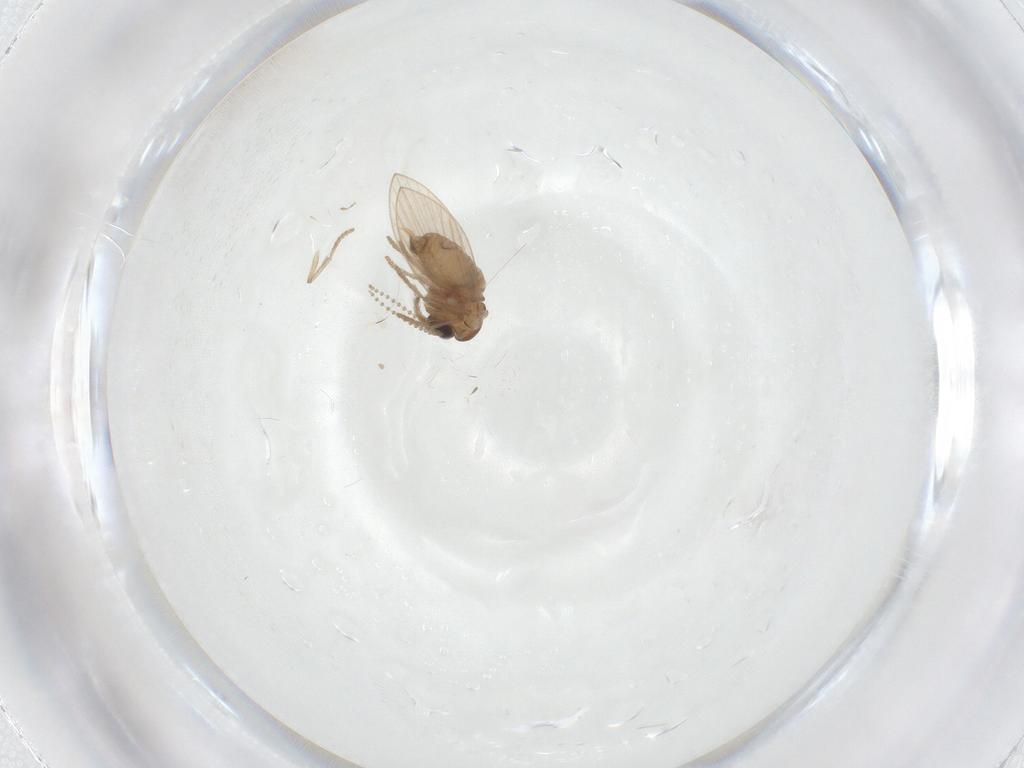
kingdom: Animalia
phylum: Arthropoda
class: Insecta
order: Diptera
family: Psychodidae
